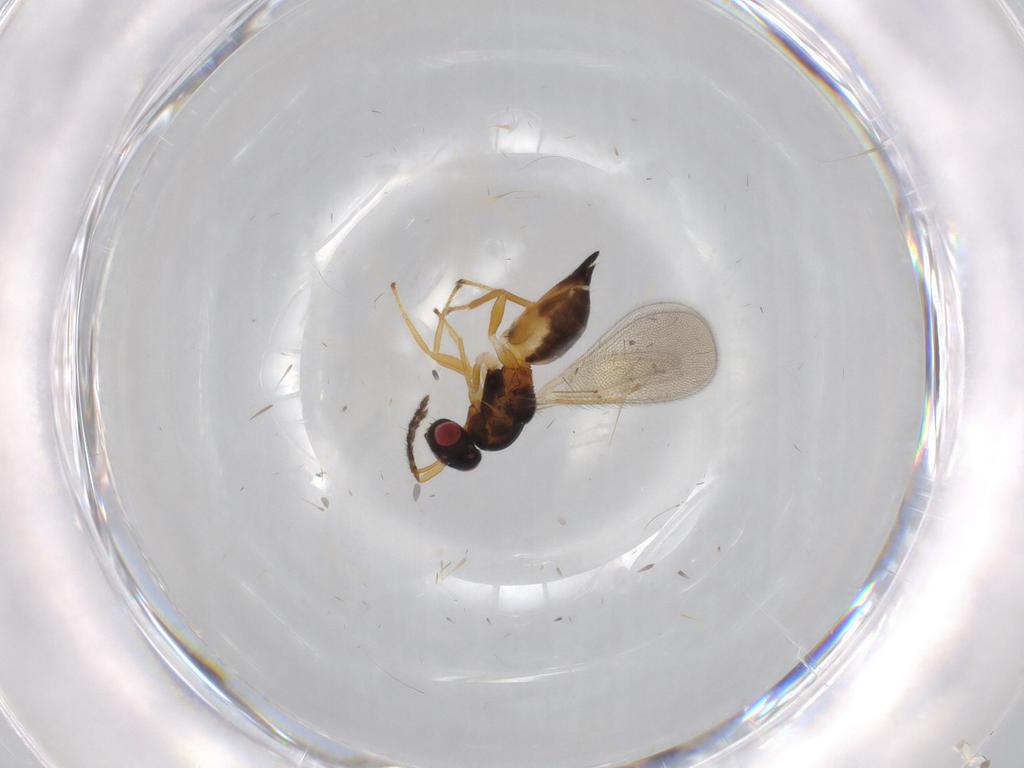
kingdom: Animalia
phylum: Arthropoda
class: Insecta
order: Hymenoptera
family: Eulophidae
